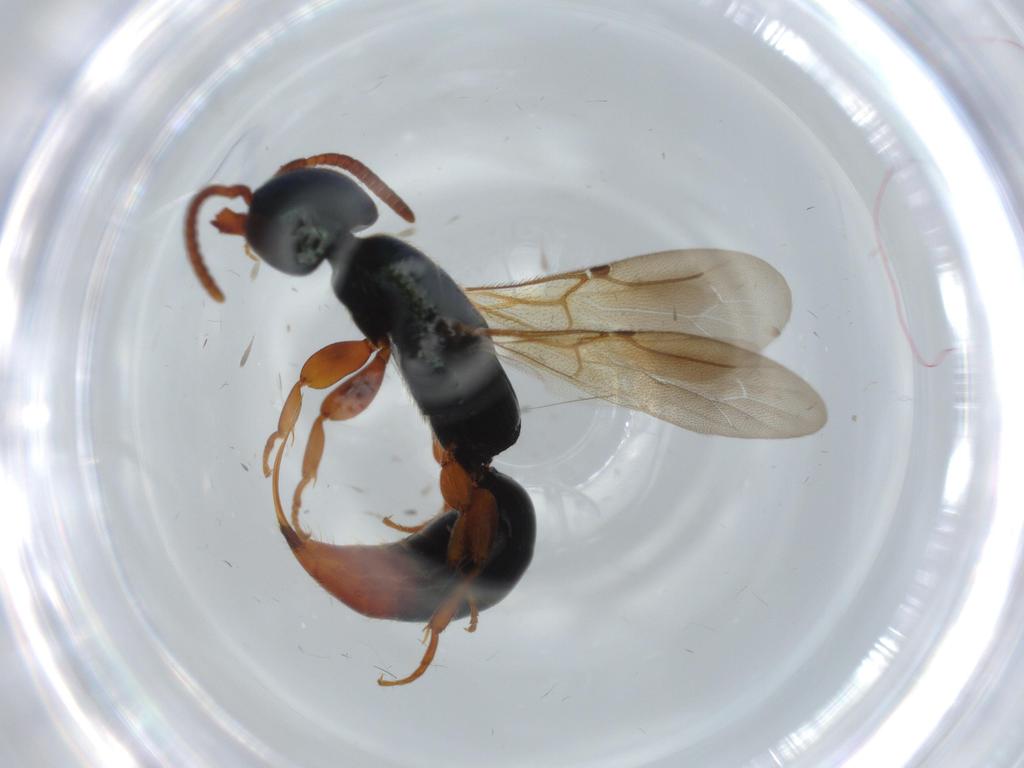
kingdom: Animalia
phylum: Arthropoda
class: Insecta
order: Hymenoptera
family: Bethylidae
